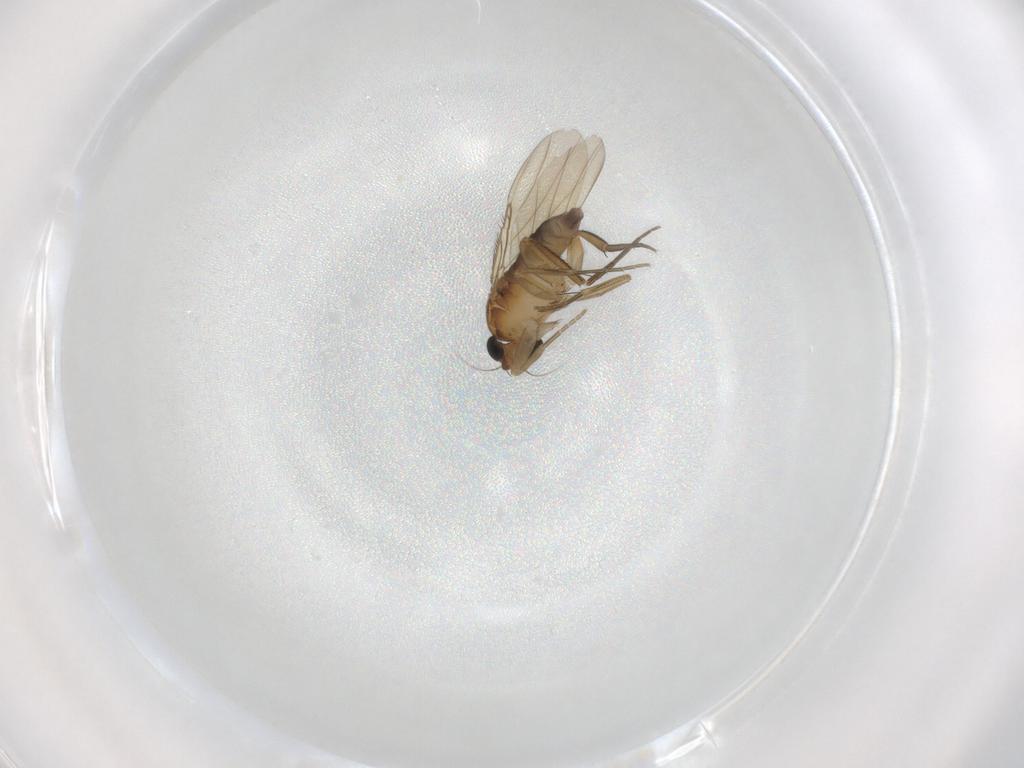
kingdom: Animalia
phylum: Arthropoda
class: Insecta
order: Diptera
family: Phoridae
